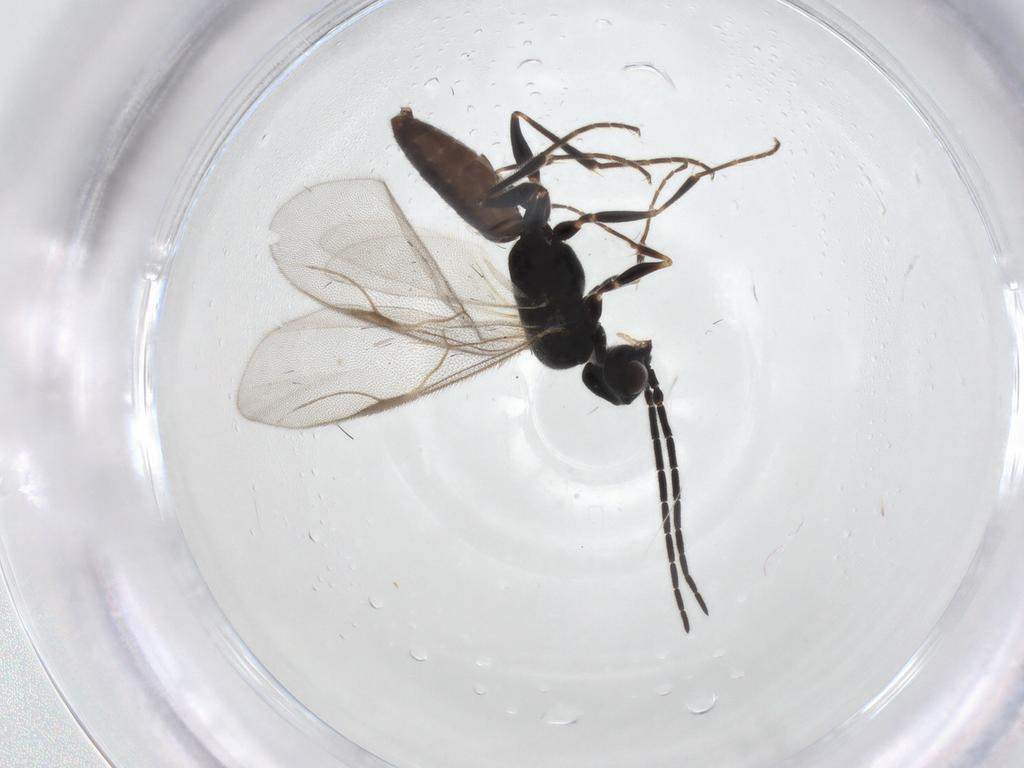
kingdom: Animalia
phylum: Arthropoda
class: Insecta
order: Hymenoptera
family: Dryinidae
